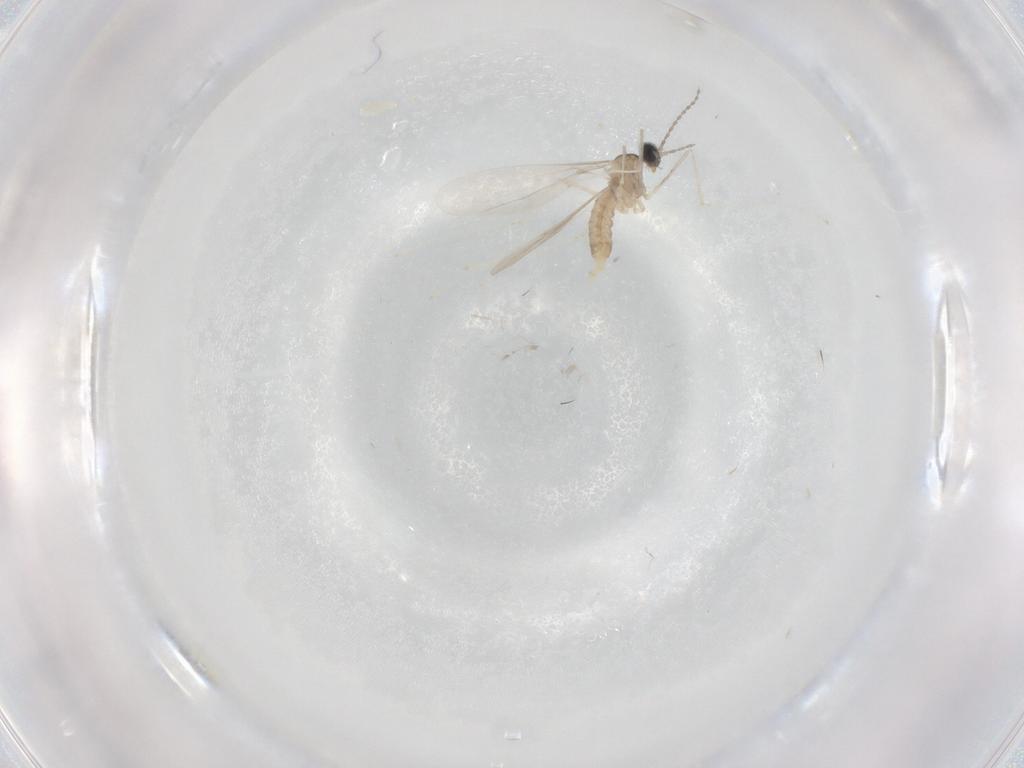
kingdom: Animalia
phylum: Arthropoda
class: Insecta
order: Diptera
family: Cecidomyiidae
